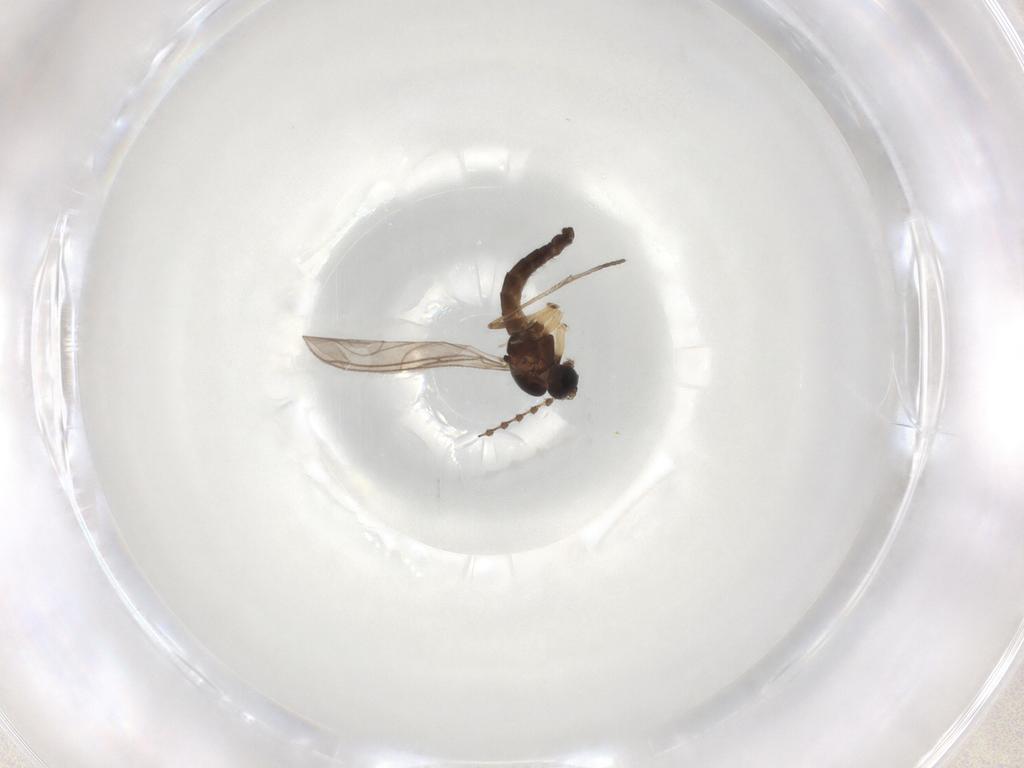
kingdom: Animalia
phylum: Arthropoda
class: Insecta
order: Diptera
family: Sciaridae
